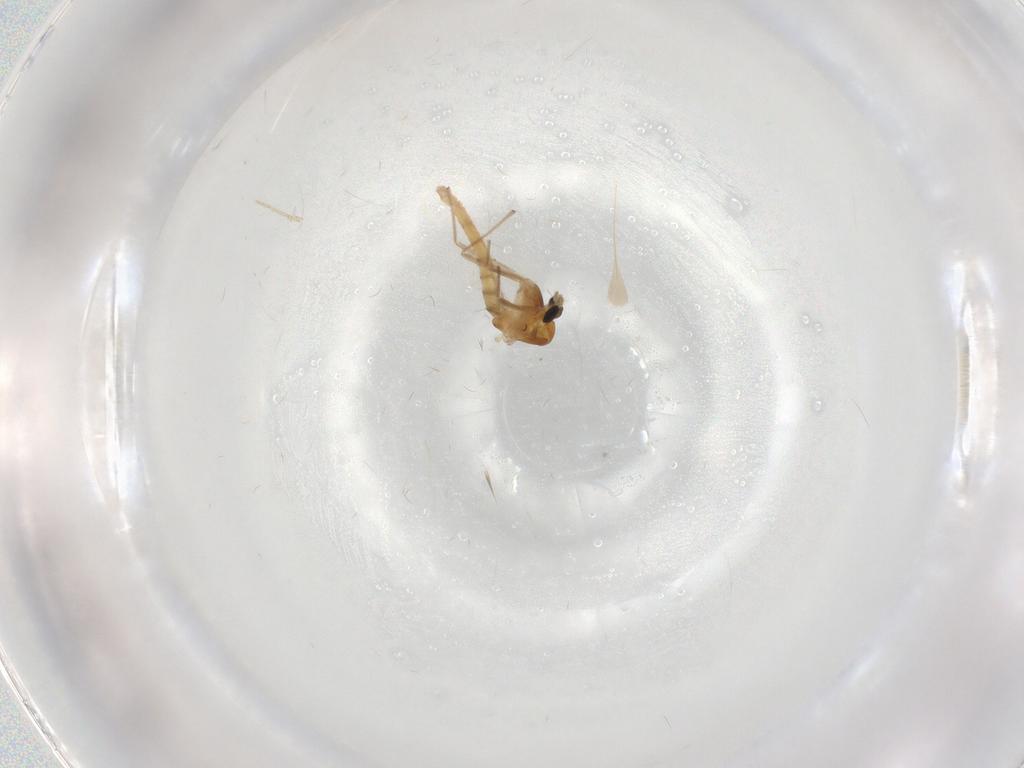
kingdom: Animalia
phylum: Arthropoda
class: Insecta
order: Diptera
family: Chironomidae
